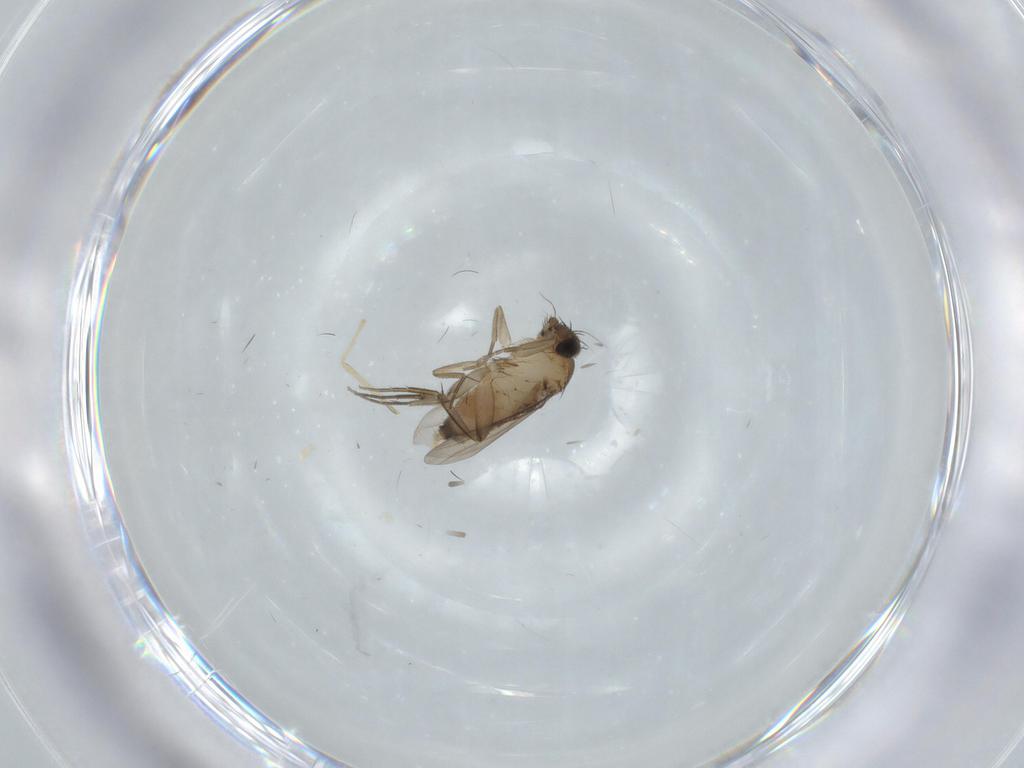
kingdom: Animalia
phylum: Arthropoda
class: Insecta
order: Diptera
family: Phoridae
